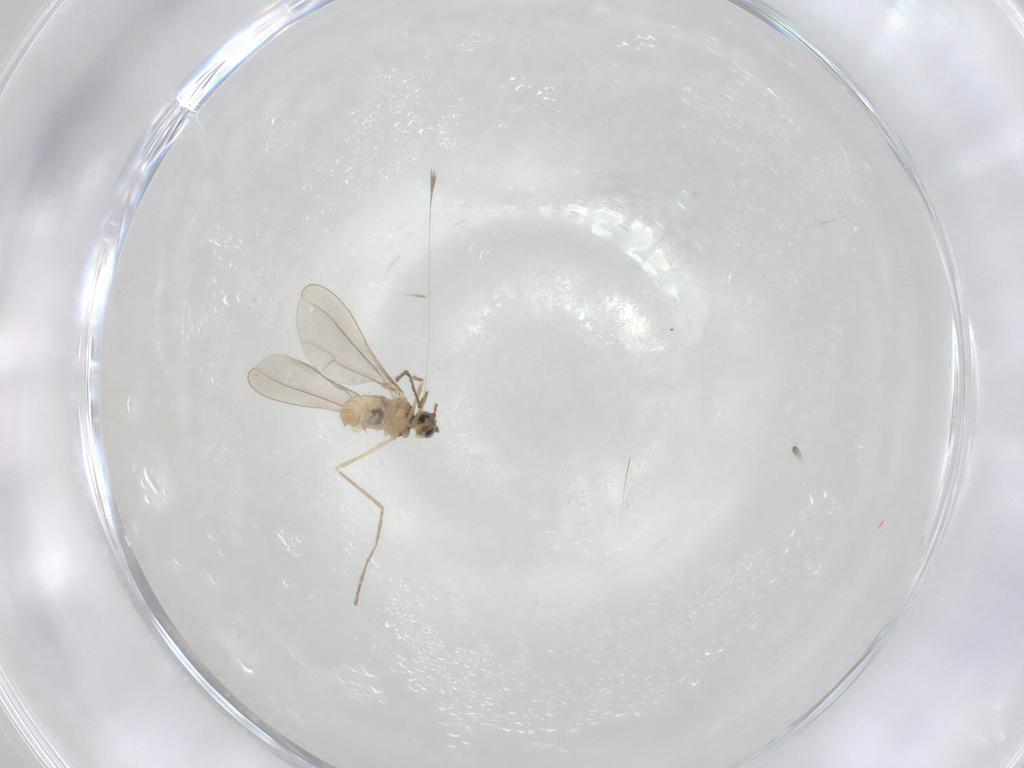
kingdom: Animalia
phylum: Arthropoda
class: Insecta
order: Diptera
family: Cecidomyiidae
